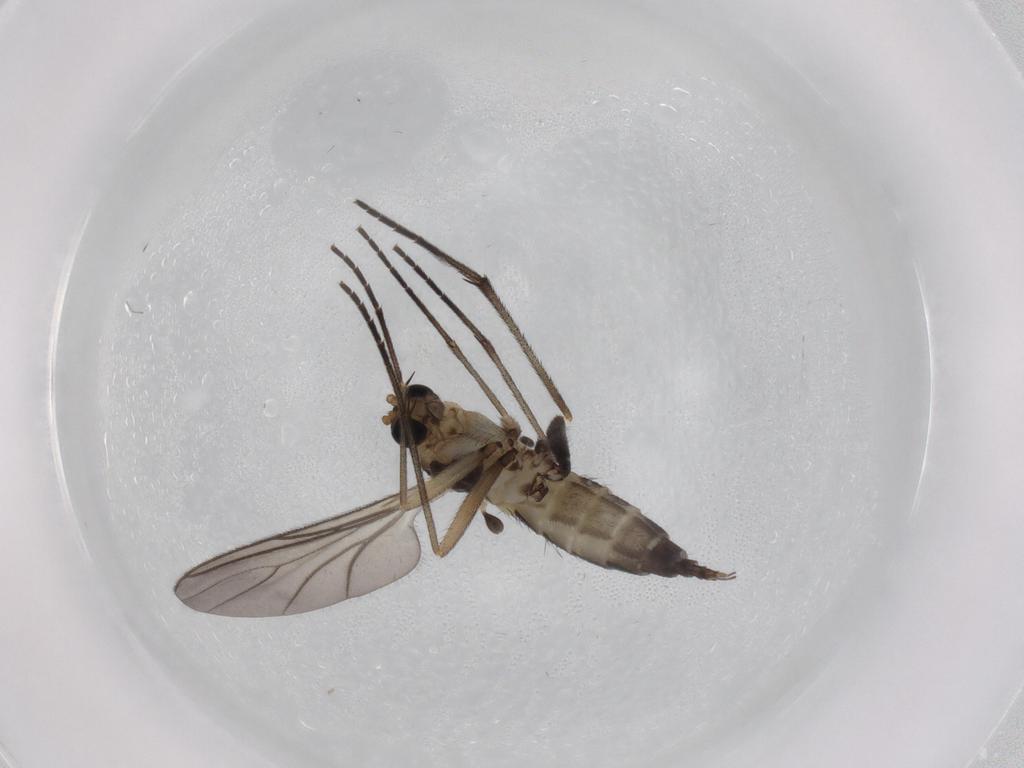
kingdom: Animalia
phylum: Arthropoda
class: Insecta
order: Diptera
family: Sciaridae
